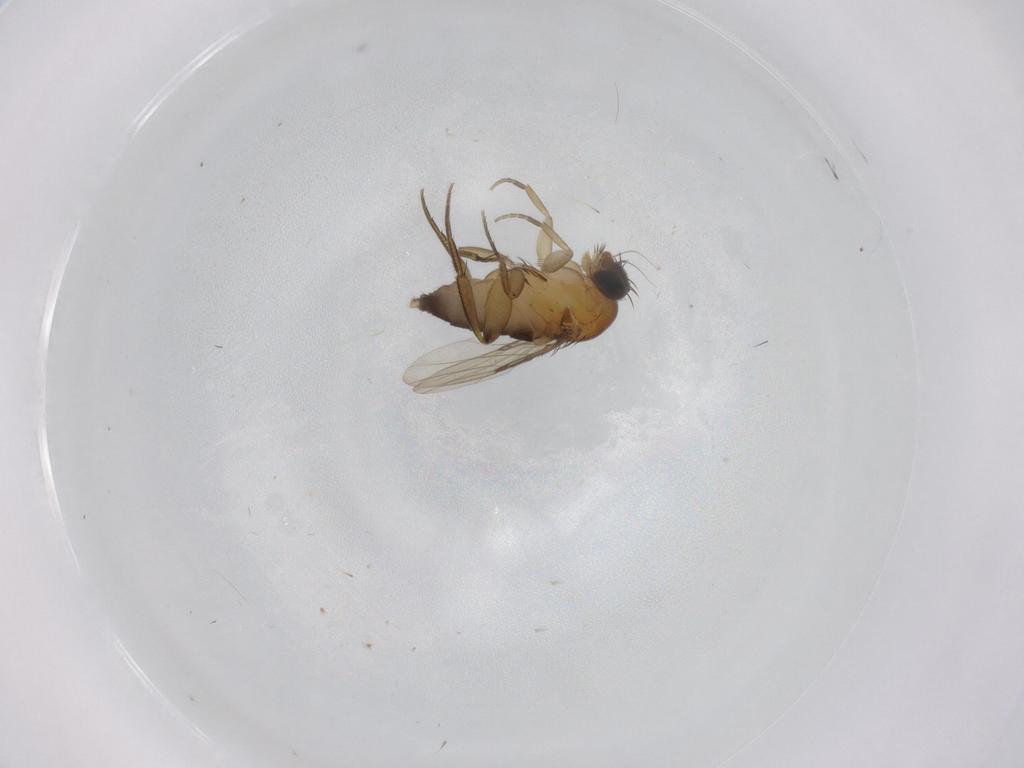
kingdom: Animalia
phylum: Arthropoda
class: Insecta
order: Diptera
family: Phoridae
